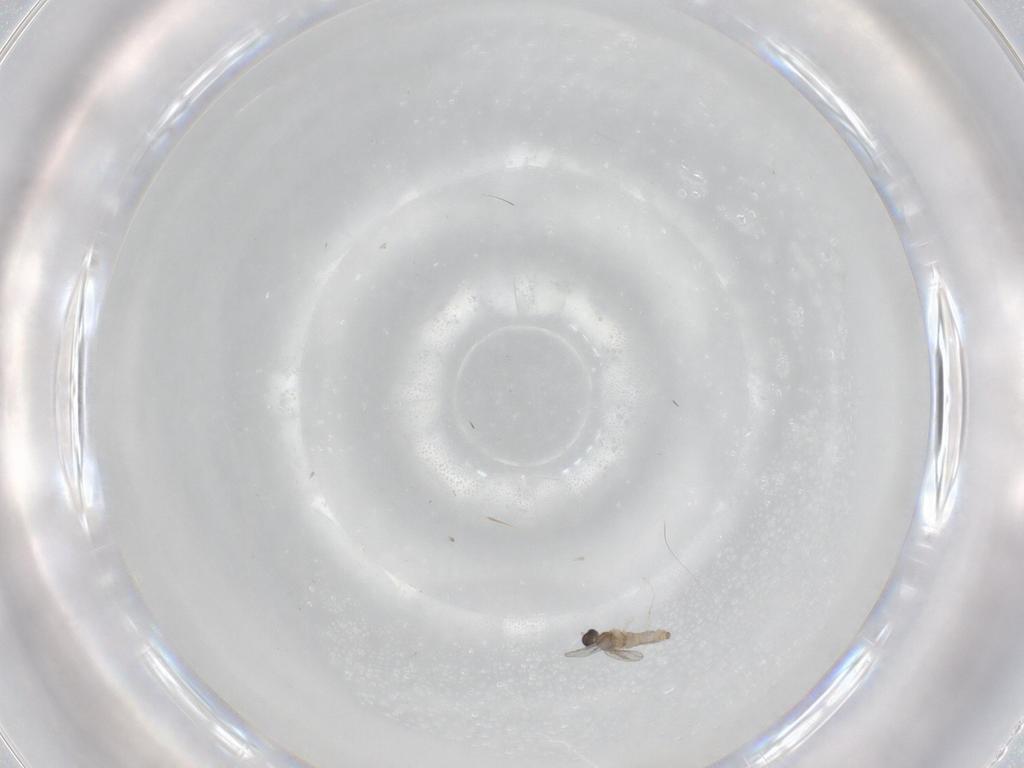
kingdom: Animalia
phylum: Arthropoda
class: Insecta
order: Diptera
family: Cecidomyiidae
